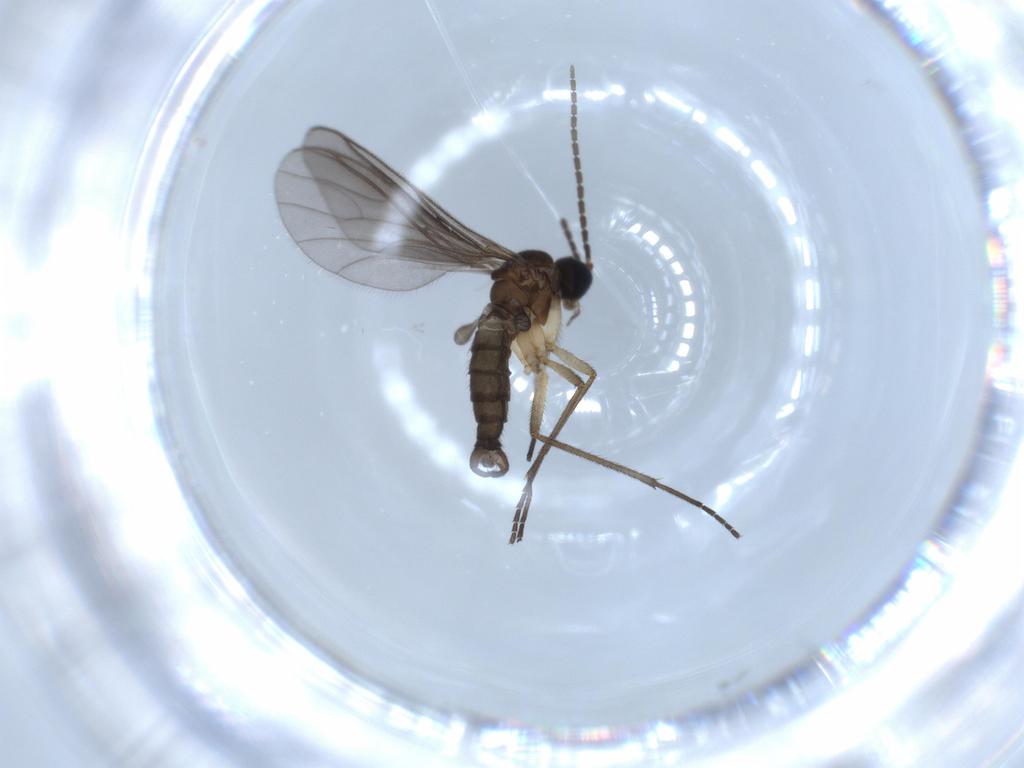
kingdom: Animalia
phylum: Arthropoda
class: Insecta
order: Diptera
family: Sciaridae
